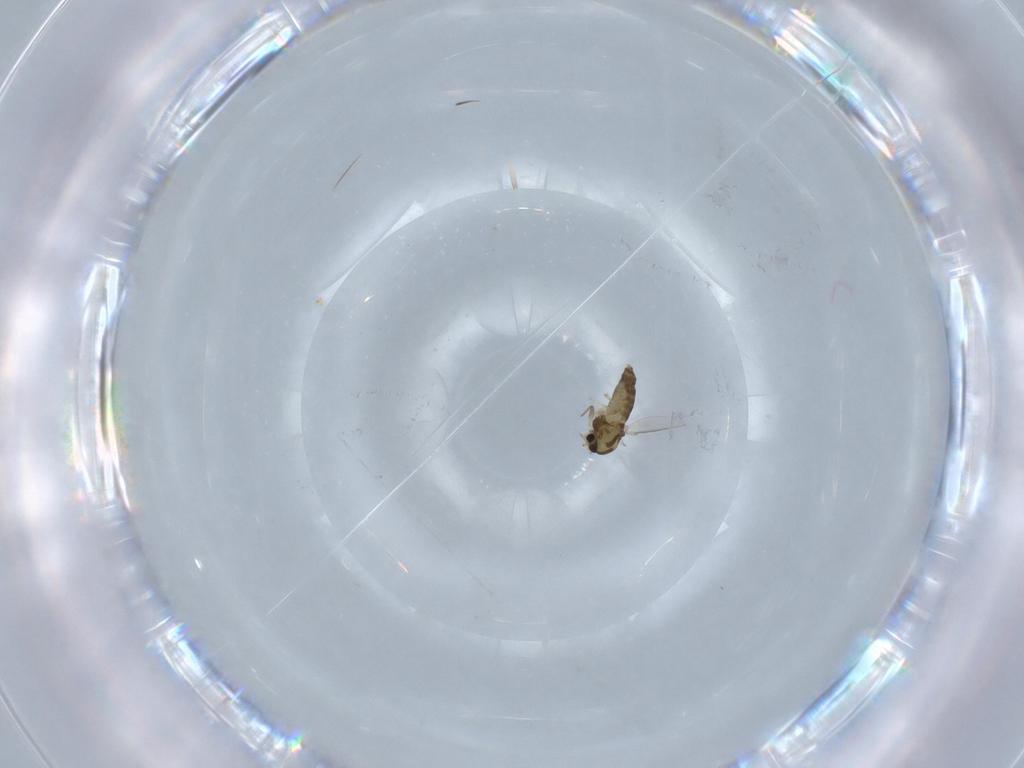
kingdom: Animalia
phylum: Arthropoda
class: Insecta
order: Diptera
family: Chironomidae
